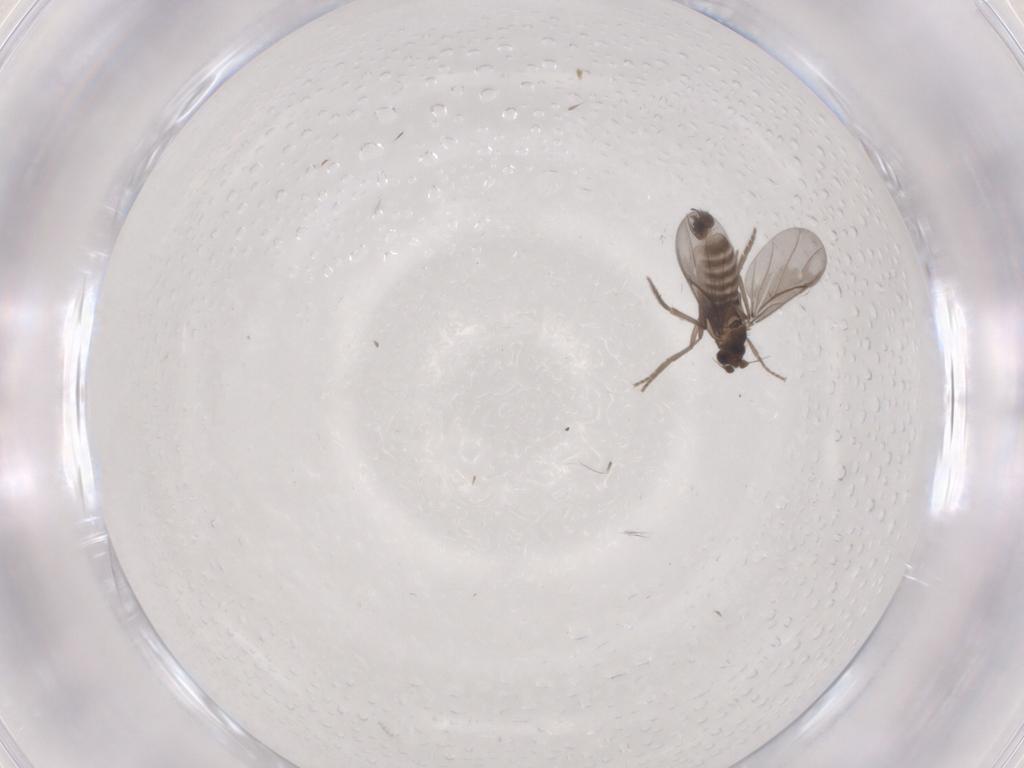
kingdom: Animalia
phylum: Arthropoda
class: Insecta
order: Diptera
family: Phoridae
